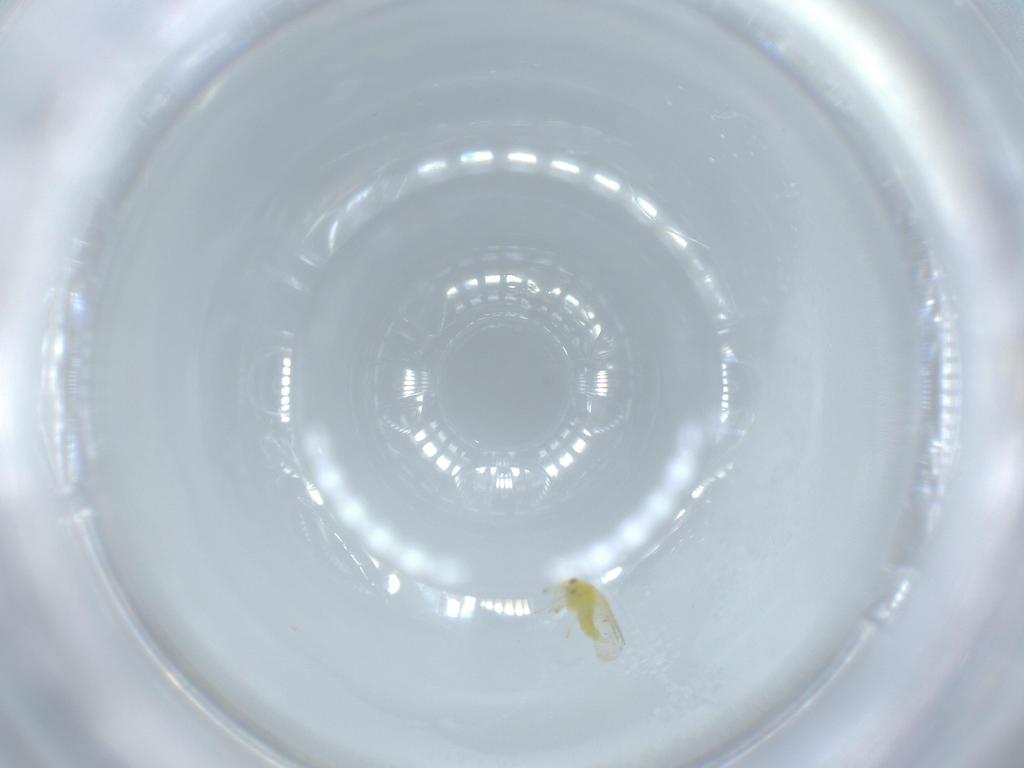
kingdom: Animalia
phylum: Arthropoda
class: Insecta
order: Hemiptera
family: Aleyrodidae
